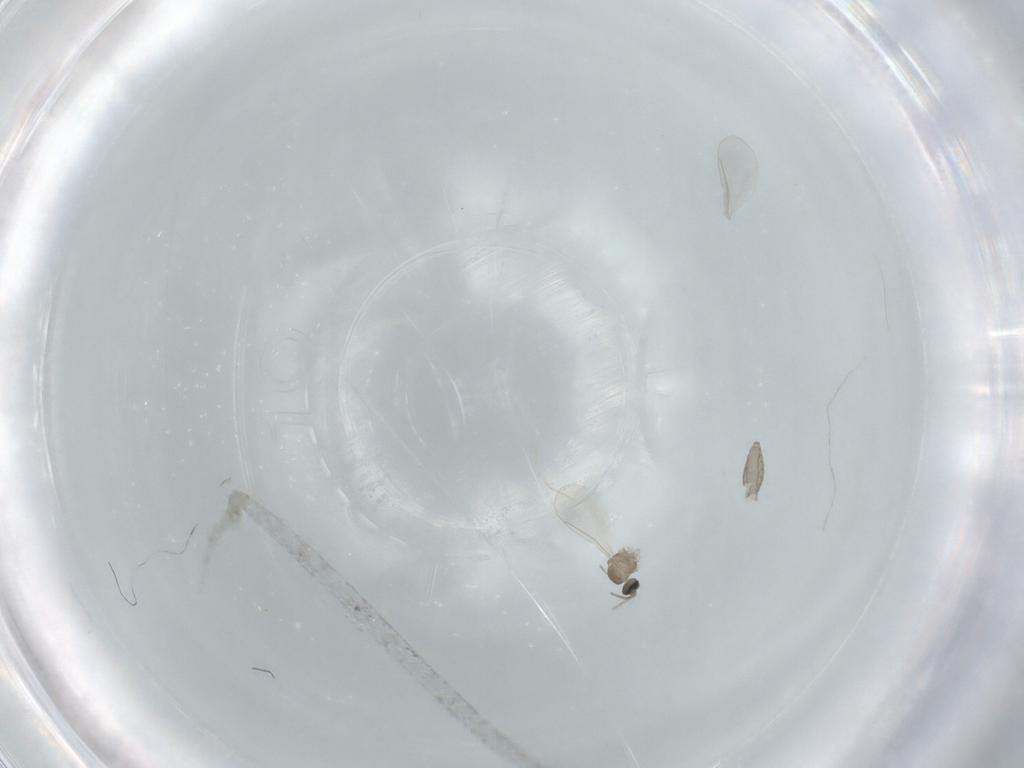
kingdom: Animalia
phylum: Arthropoda
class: Insecta
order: Diptera
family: Cecidomyiidae
